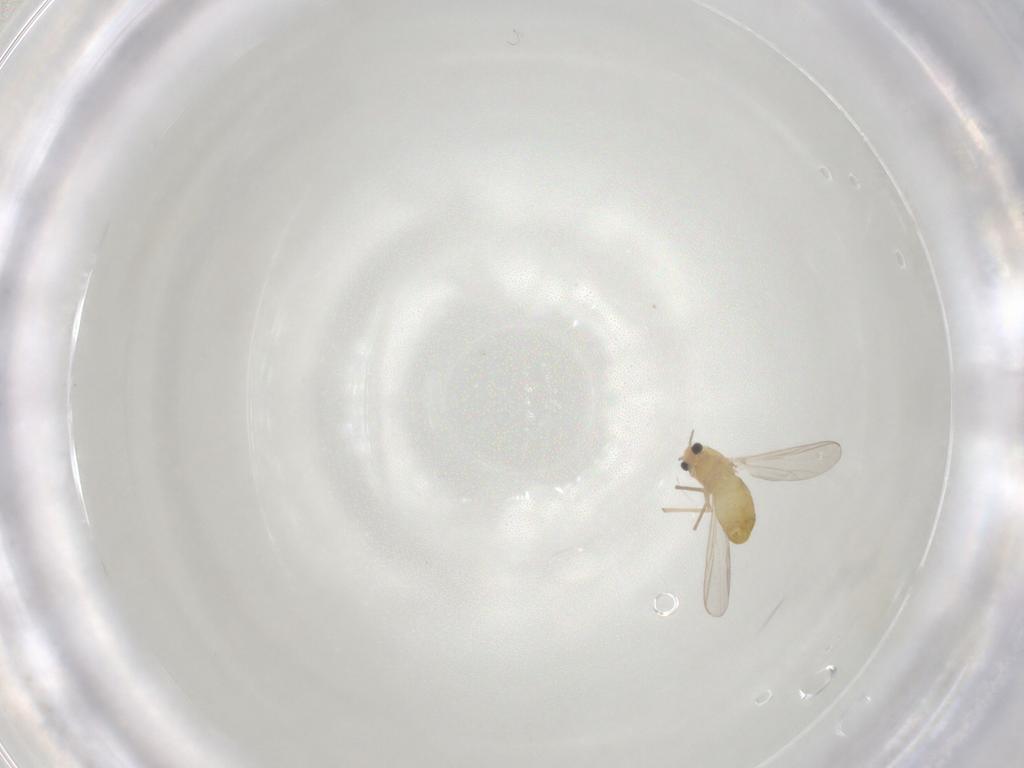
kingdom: Animalia
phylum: Arthropoda
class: Insecta
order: Diptera
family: Chironomidae
